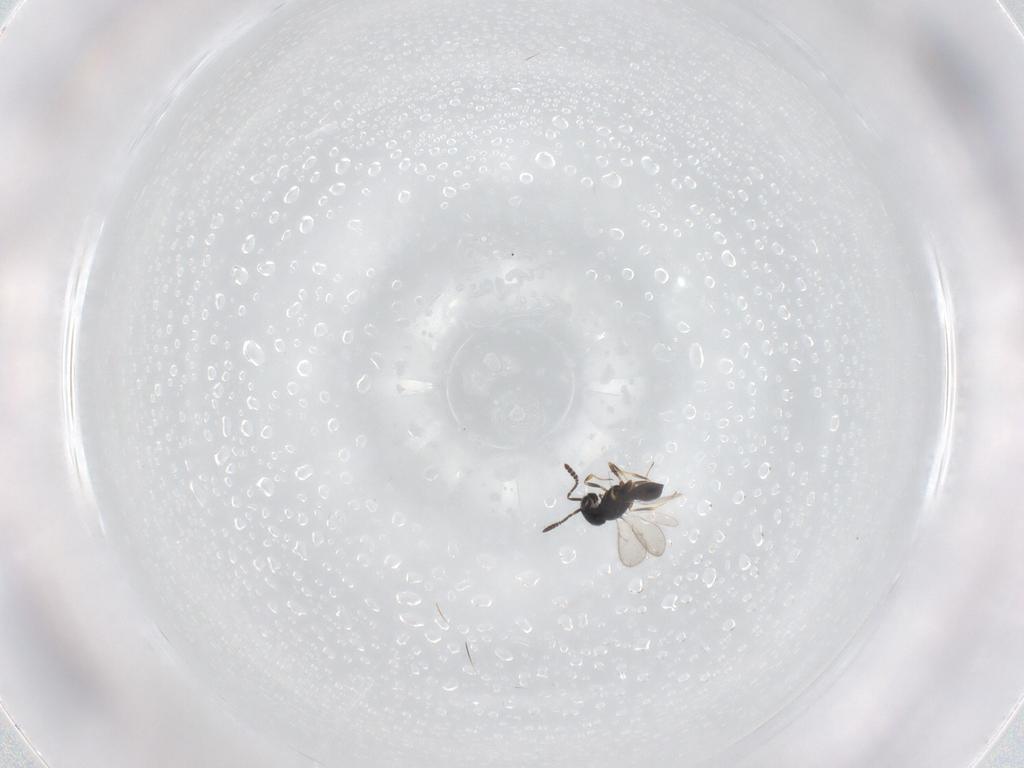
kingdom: Animalia
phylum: Arthropoda
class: Insecta
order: Hymenoptera
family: Scelionidae
